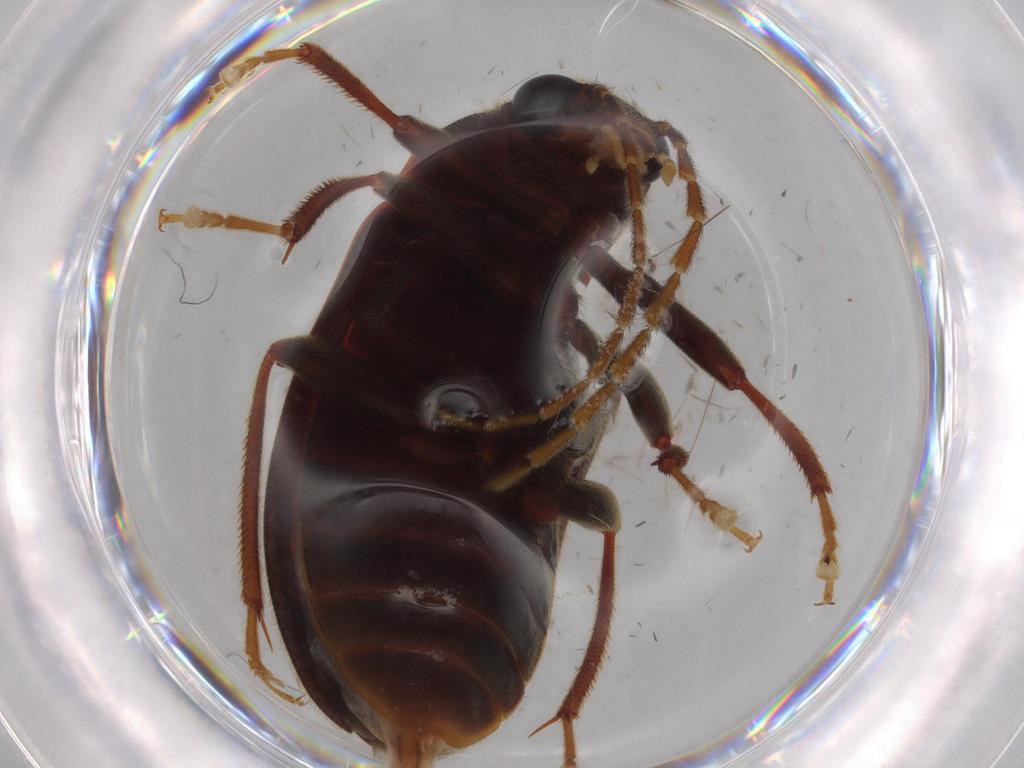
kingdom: Animalia
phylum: Arthropoda
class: Insecta
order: Coleoptera
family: Ptilodactylidae
